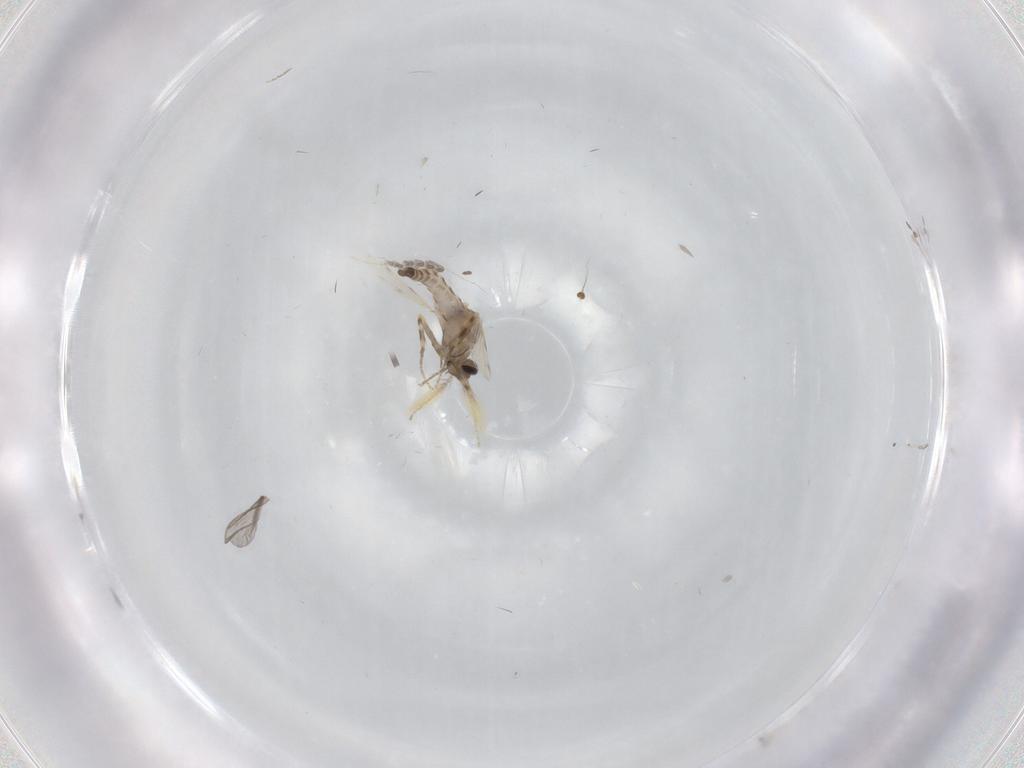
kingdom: Animalia
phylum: Arthropoda
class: Insecta
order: Diptera
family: Ceratopogonidae
